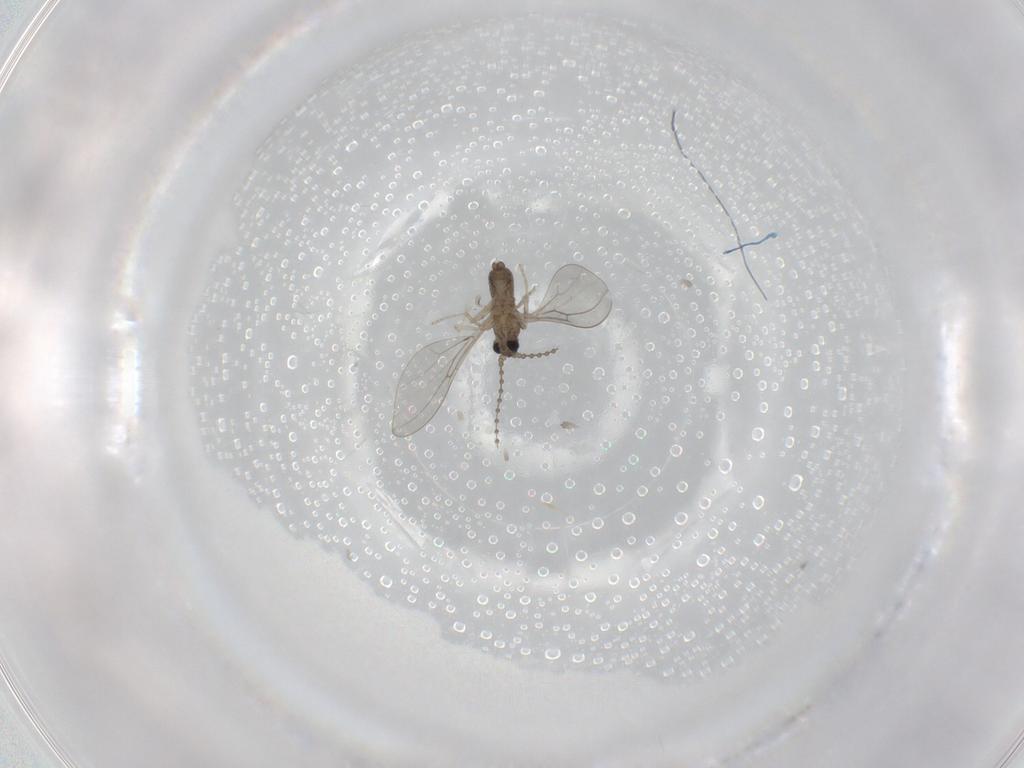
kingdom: Animalia
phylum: Arthropoda
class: Insecta
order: Diptera
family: Cecidomyiidae
